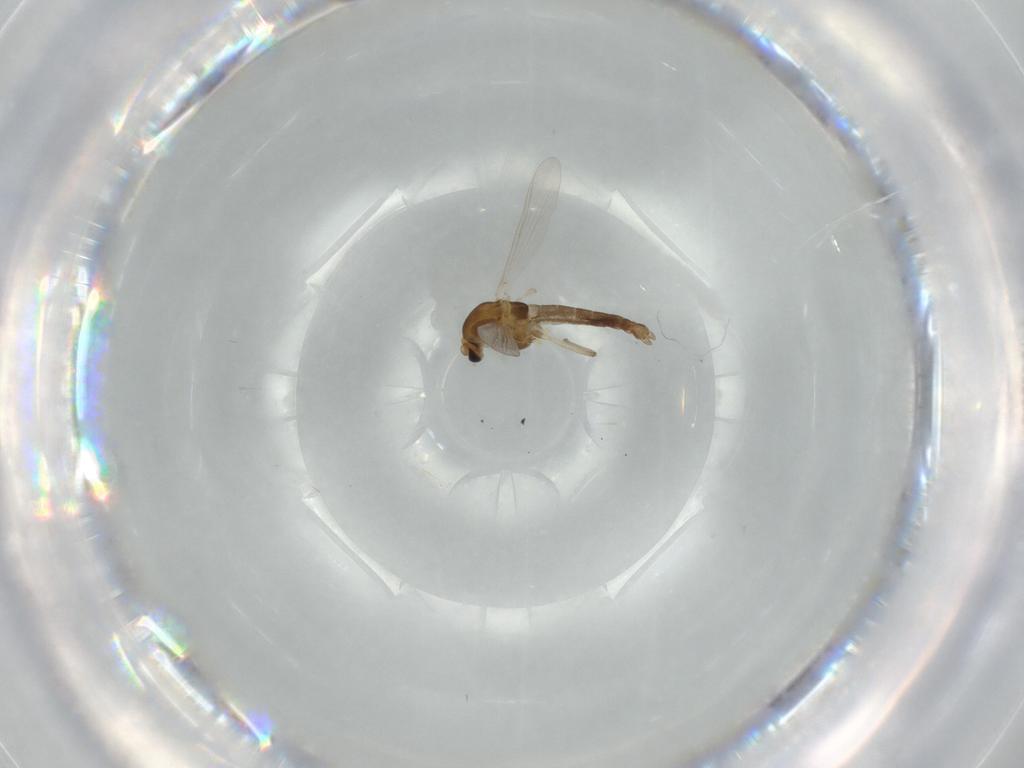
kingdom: Animalia
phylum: Arthropoda
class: Insecta
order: Diptera
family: Chironomidae
